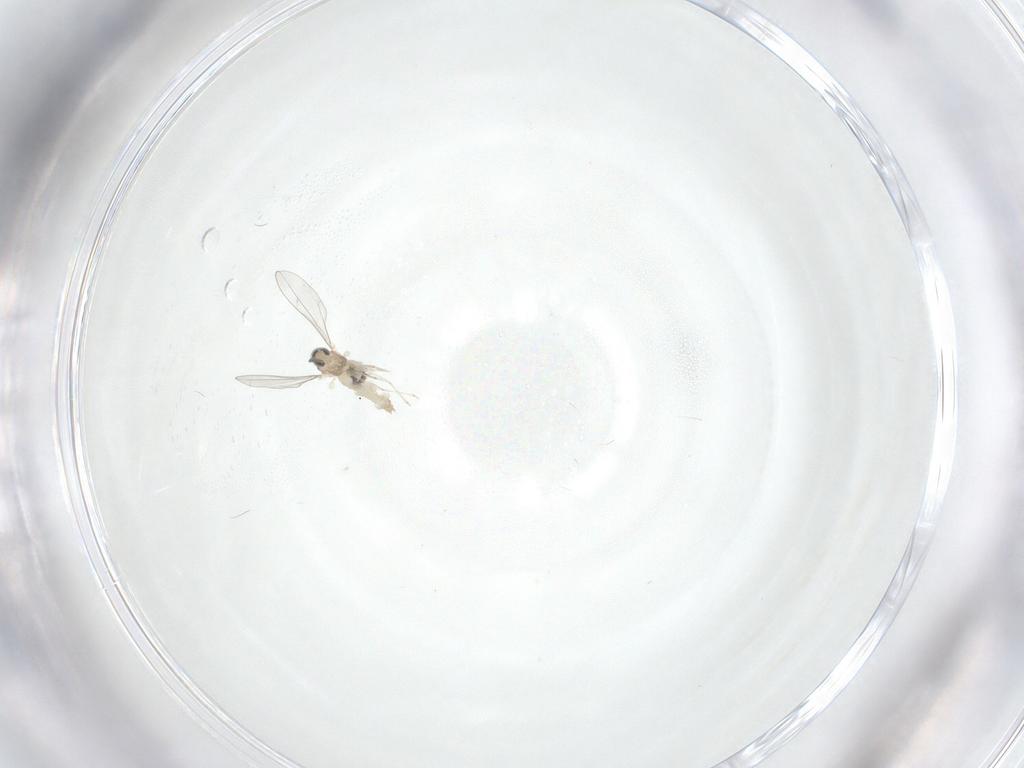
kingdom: Animalia
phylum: Arthropoda
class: Insecta
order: Diptera
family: Cecidomyiidae
